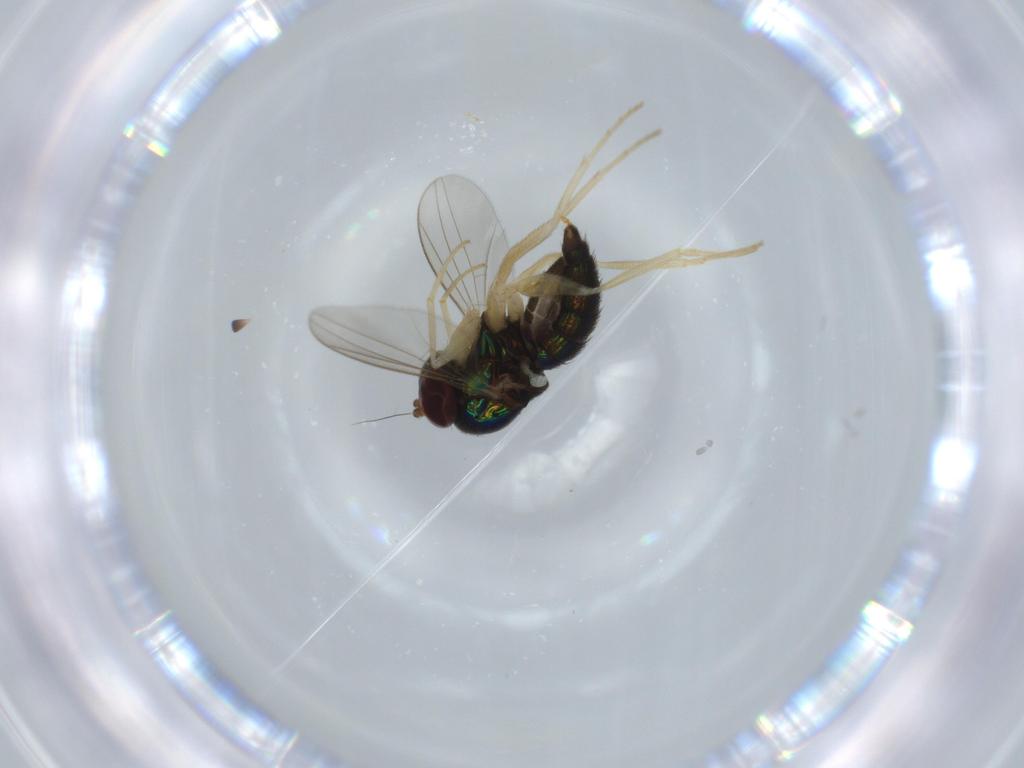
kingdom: Animalia
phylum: Arthropoda
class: Insecta
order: Diptera
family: Dolichopodidae
